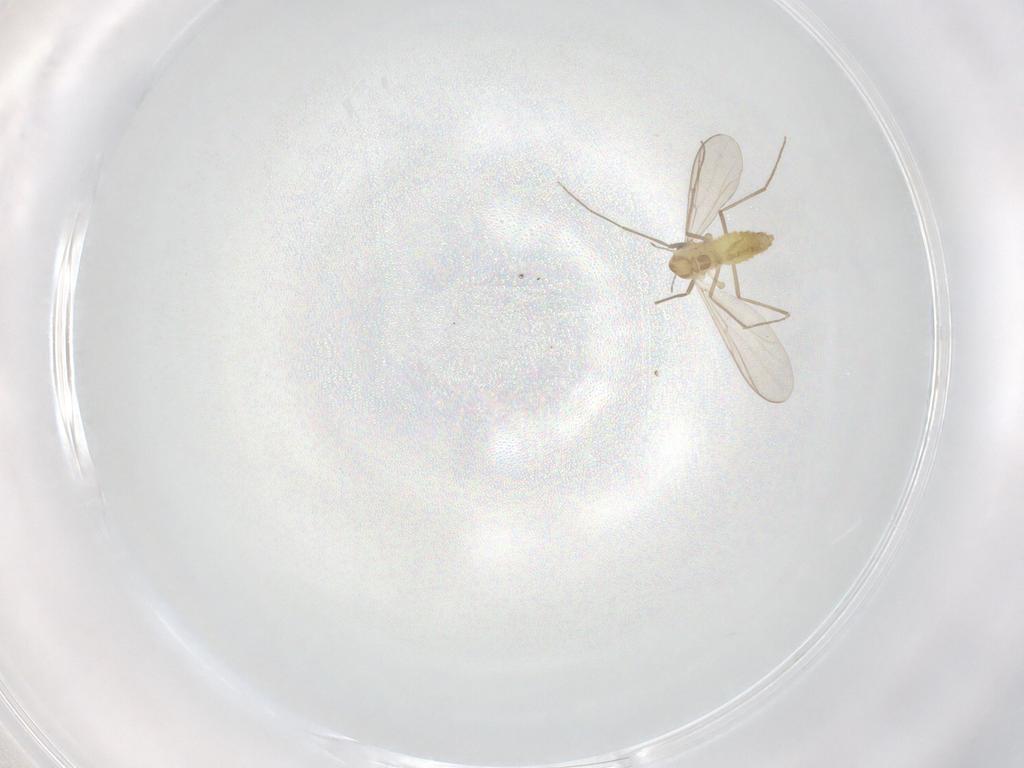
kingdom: Animalia
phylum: Arthropoda
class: Insecta
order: Diptera
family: Chironomidae
